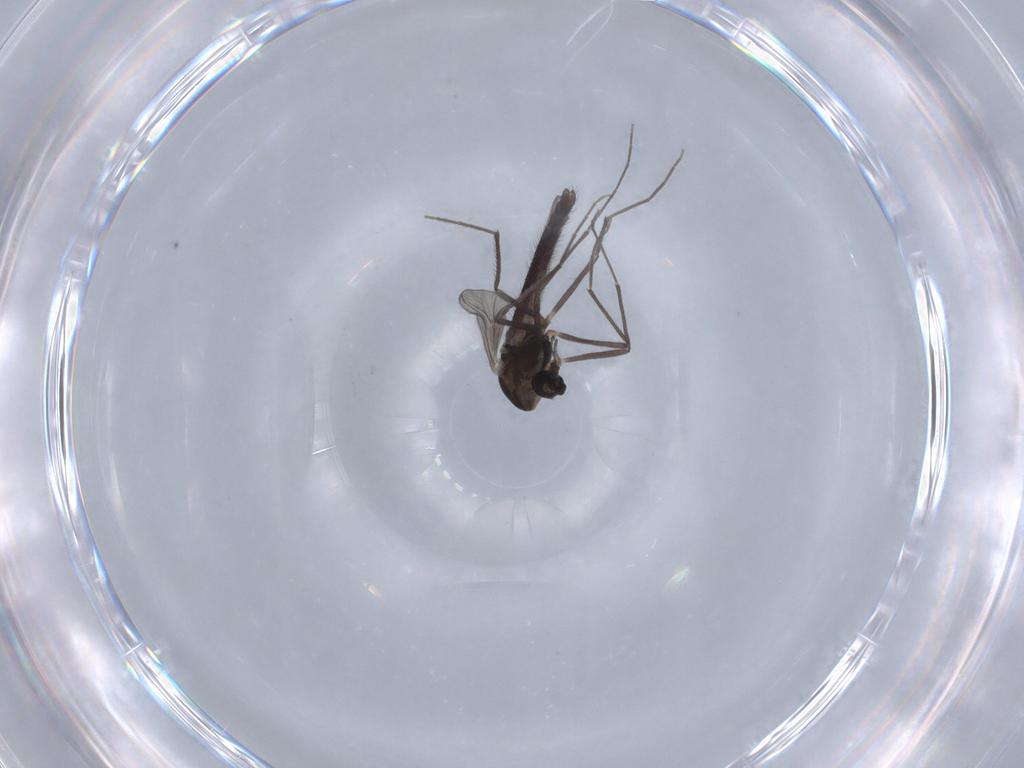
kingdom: Animalia
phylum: Arthropoda
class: Insecta
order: Diptera
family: Chironomidae
